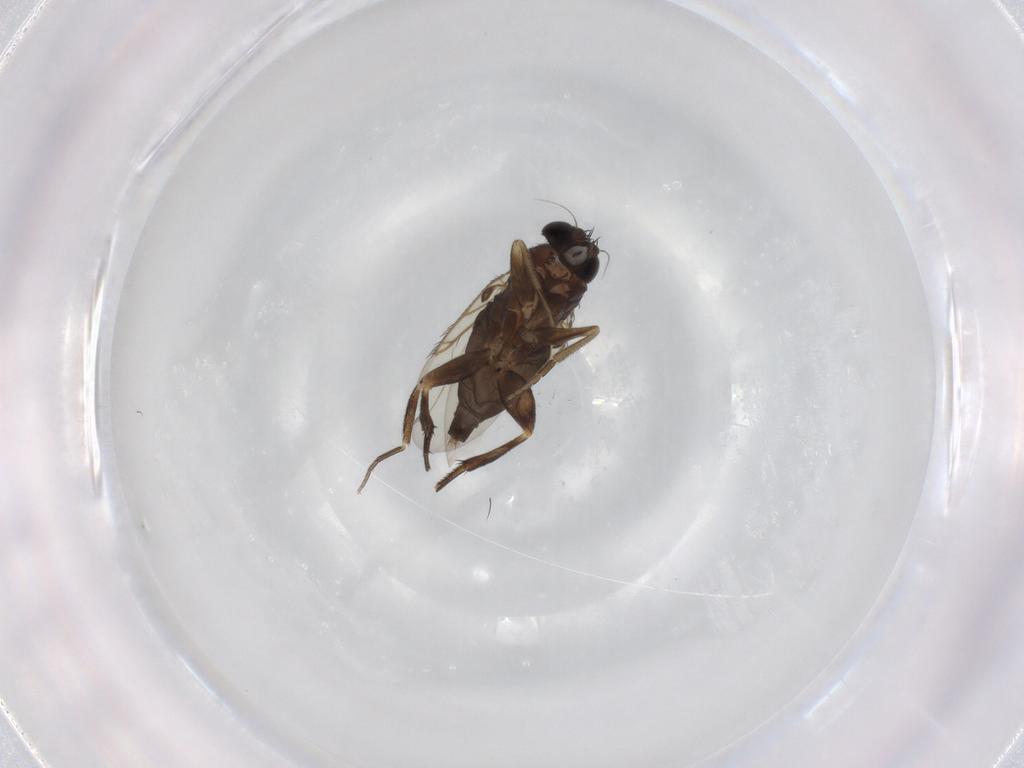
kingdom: Animalia
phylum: Arthropoda
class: Insecta
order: Diptera
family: Phoridae
